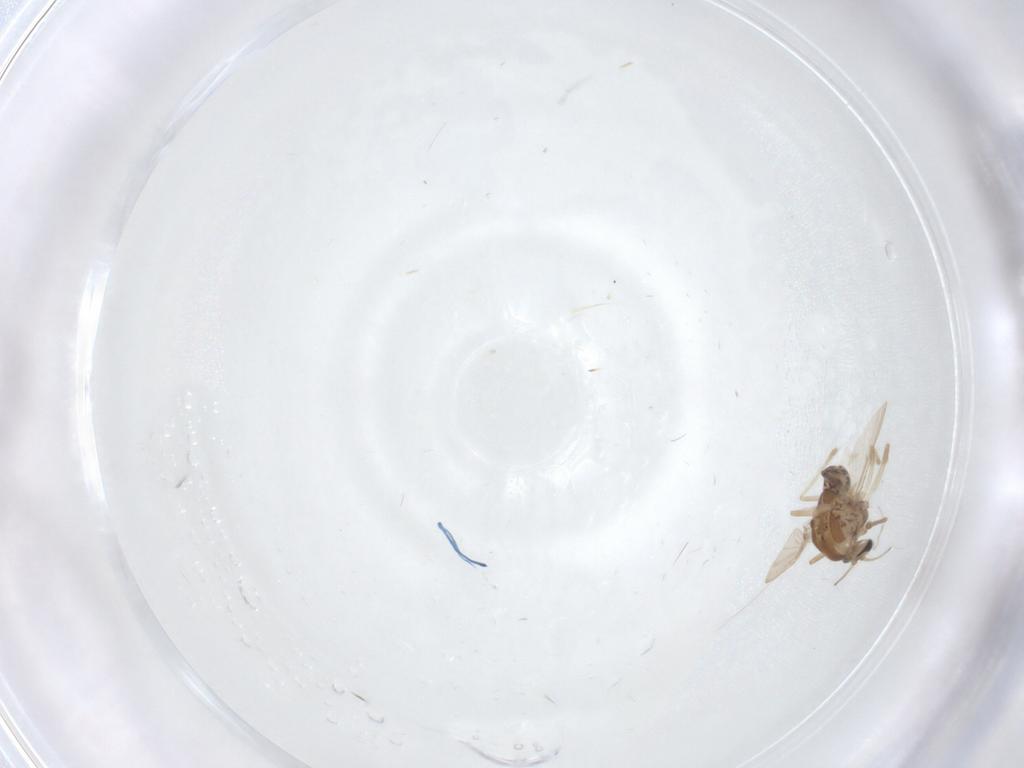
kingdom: Animalia
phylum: Arthropoda
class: Insecta
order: Diptera
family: Chironomidae
